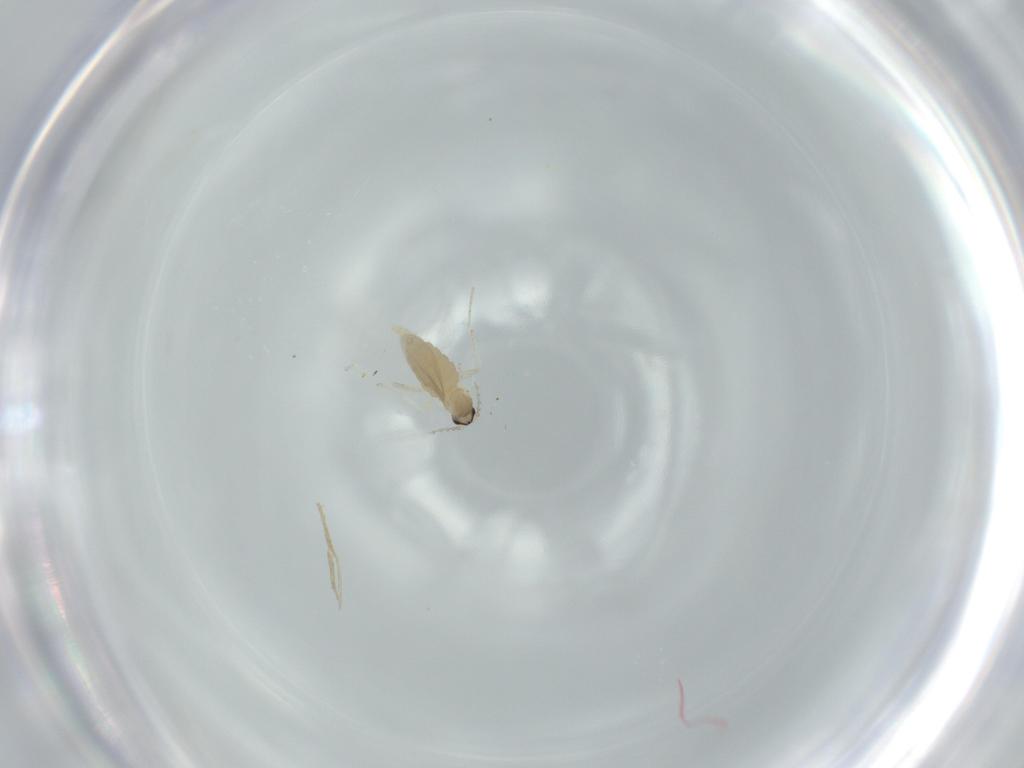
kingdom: Animalia
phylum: Arthropoda
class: Insecta
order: Diptera
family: Cecidomyiidae
